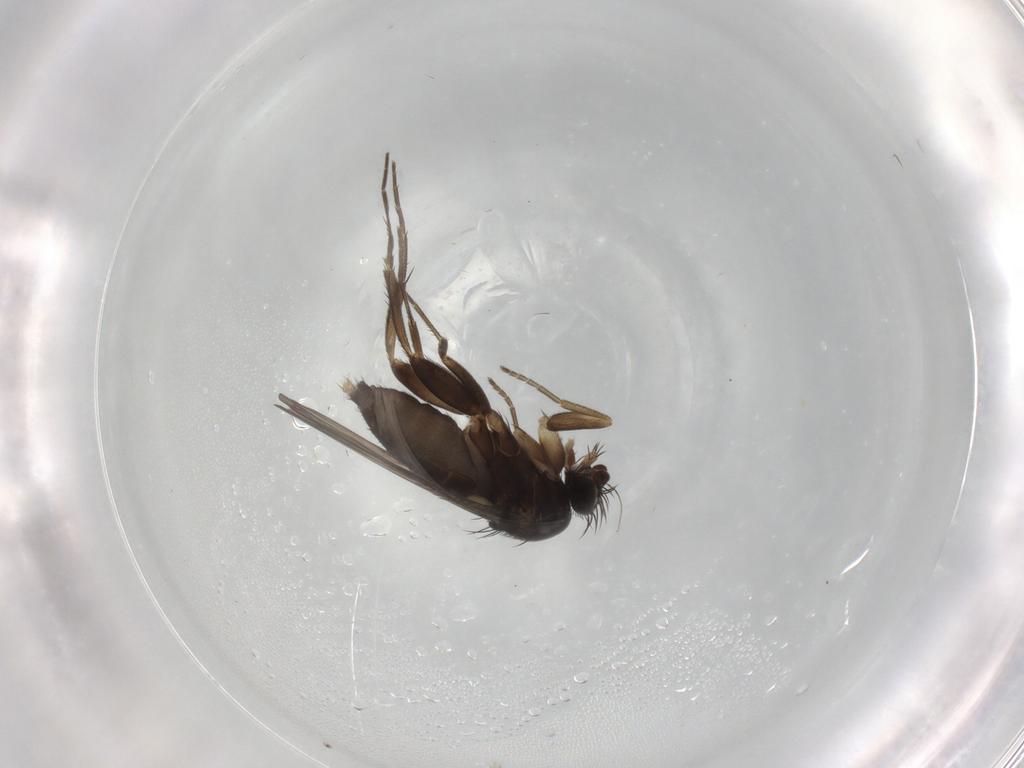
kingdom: Animalia
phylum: Arthropoda
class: Insecta
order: Diptera
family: Phoridae
